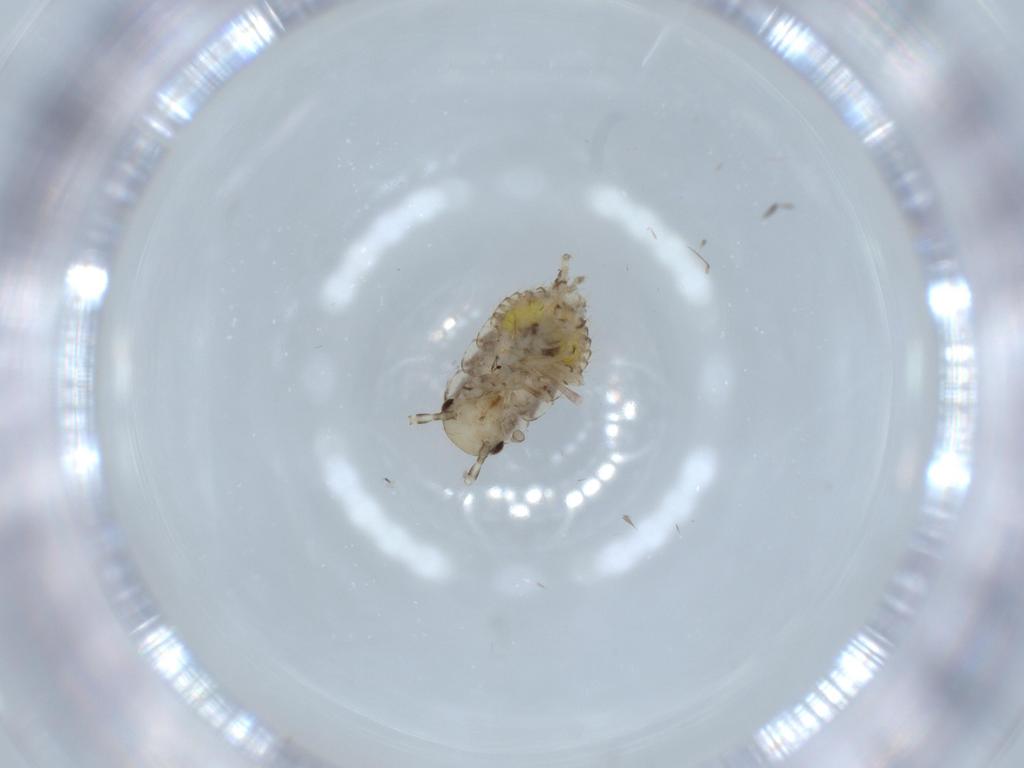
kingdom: Animalia
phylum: Arthropoda
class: Insecta
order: Blattodea
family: Ectobiidae
